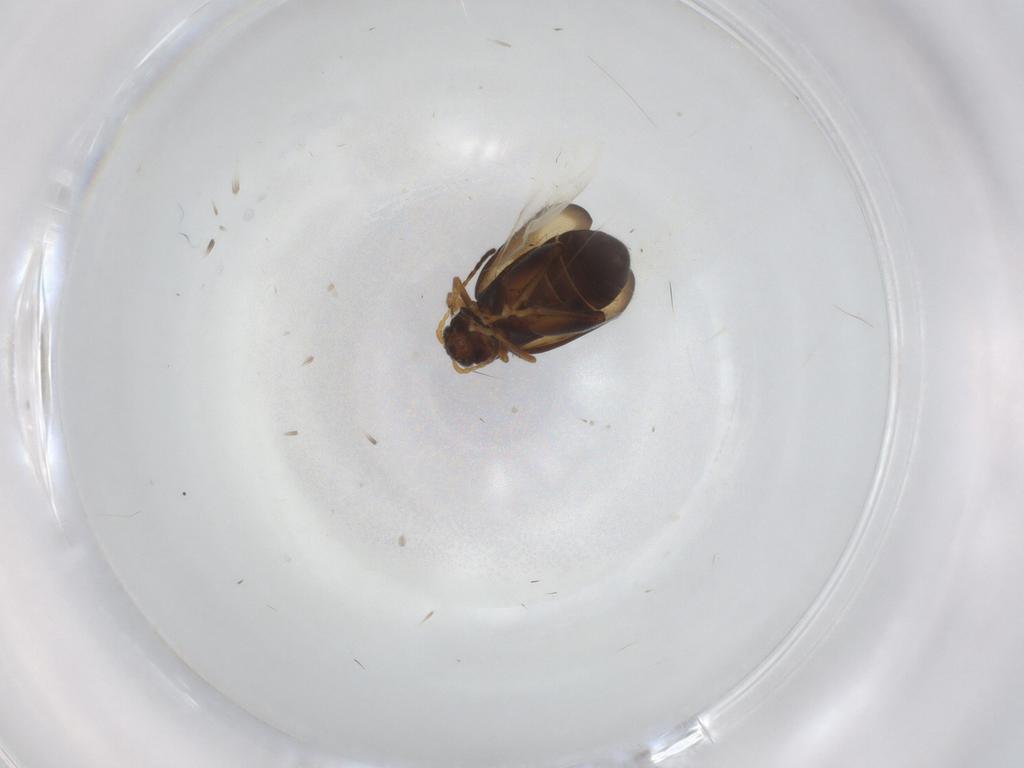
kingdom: Animalia
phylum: Arthropoda
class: Insecta
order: Coleoptera
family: Chrysomelidae
